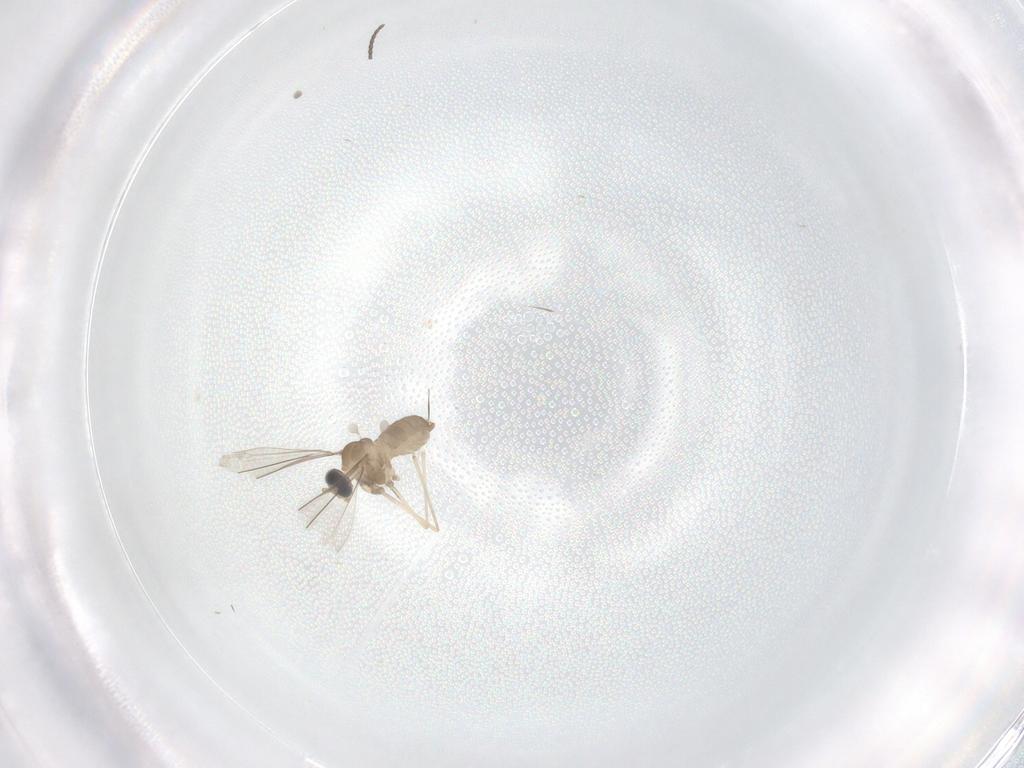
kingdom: Animalia
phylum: Arthropoda
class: Insecta
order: Diptera
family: Cecidomyiidae
